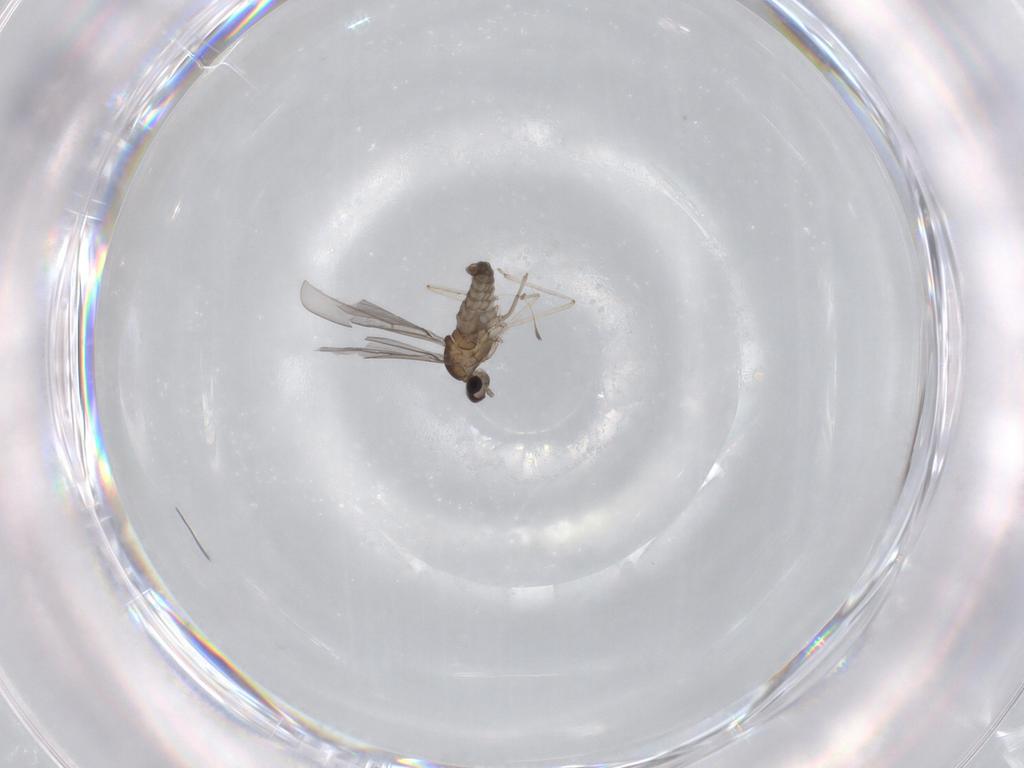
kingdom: Animalia
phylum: Arthropoda
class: Insecta
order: Diptera
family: Cecidomyiidae
